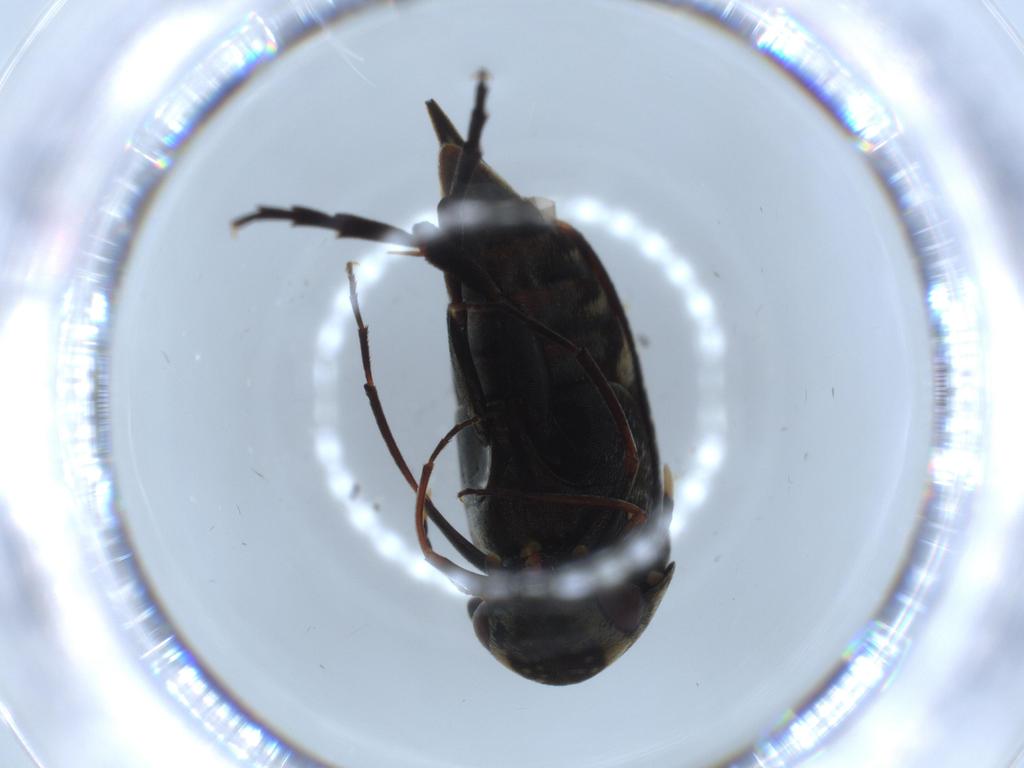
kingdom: Animalia
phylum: Arthropoda
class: Insecta
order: Coleoptera
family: Mordellidae
